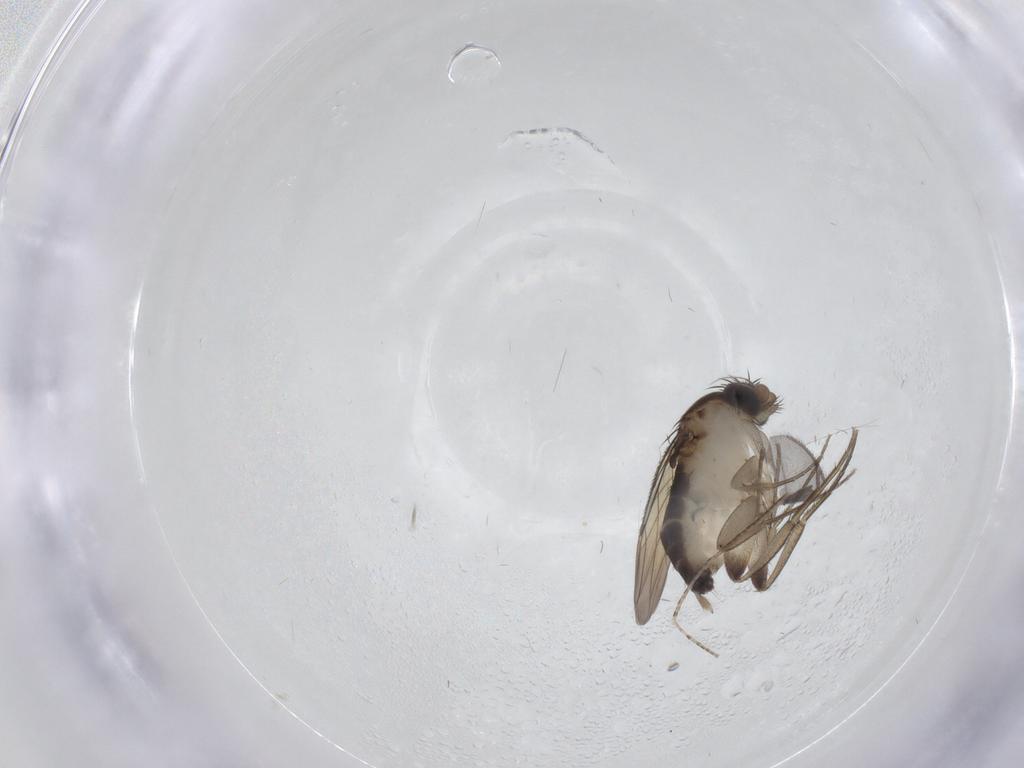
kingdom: Animalia
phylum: Arthropoda
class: Insecta
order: Diptera
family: Phoridae
